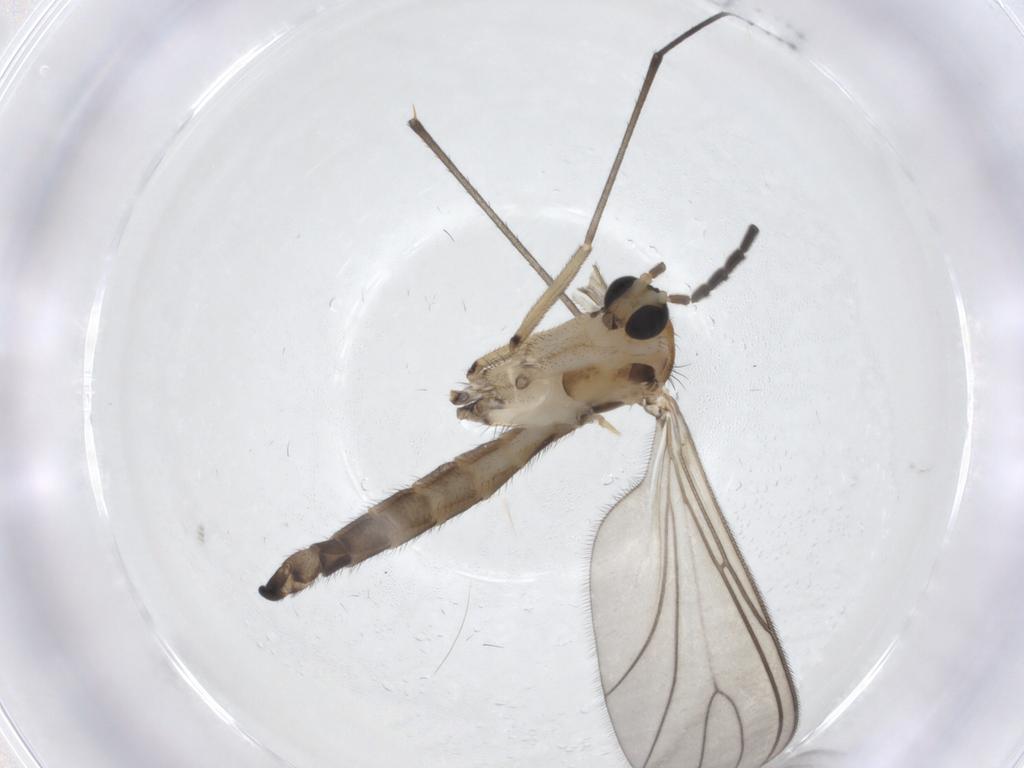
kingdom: Animalia
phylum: Arthropoda
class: Insecta
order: Diptera
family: Sciaridae
